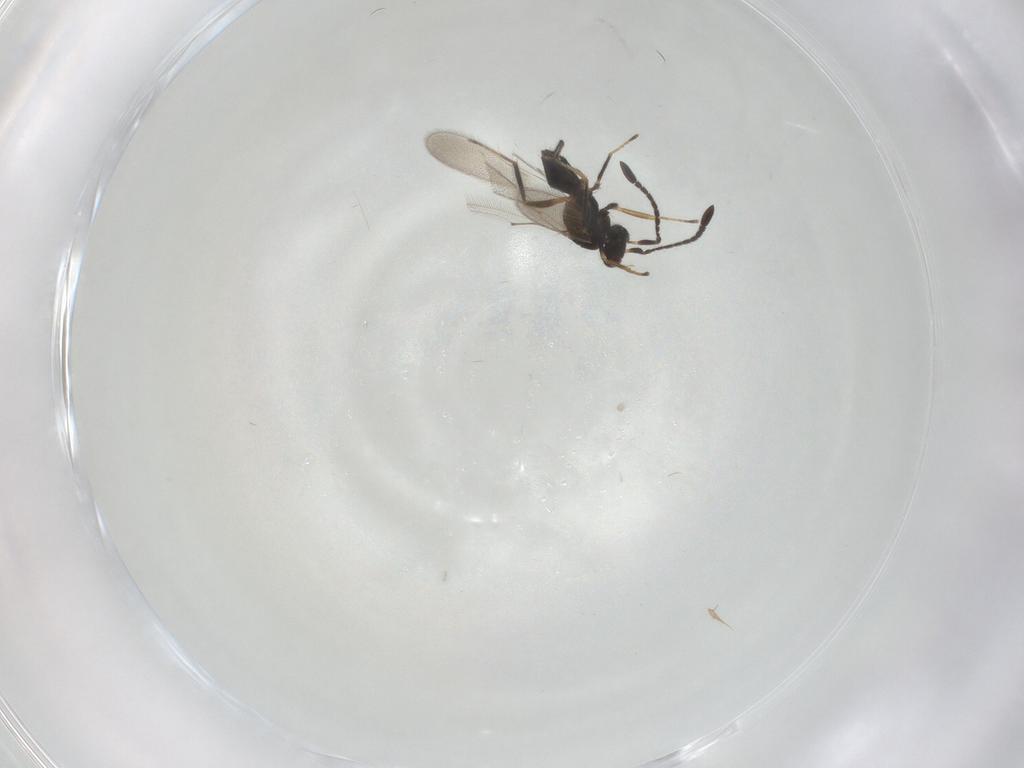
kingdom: Animalia
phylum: Arthropoda
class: Insecta
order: Hymenoptera
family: Mymaridae
